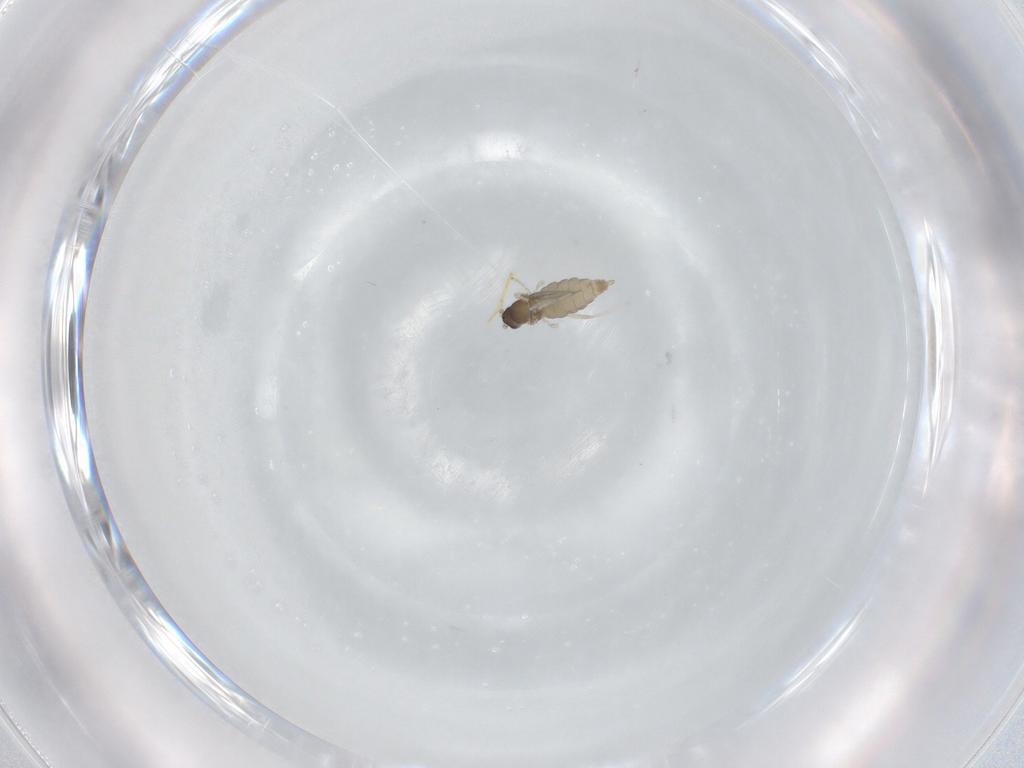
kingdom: Animalia
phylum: Arthropoda
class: Insecta
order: Diptera
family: Cecidomyiidae
